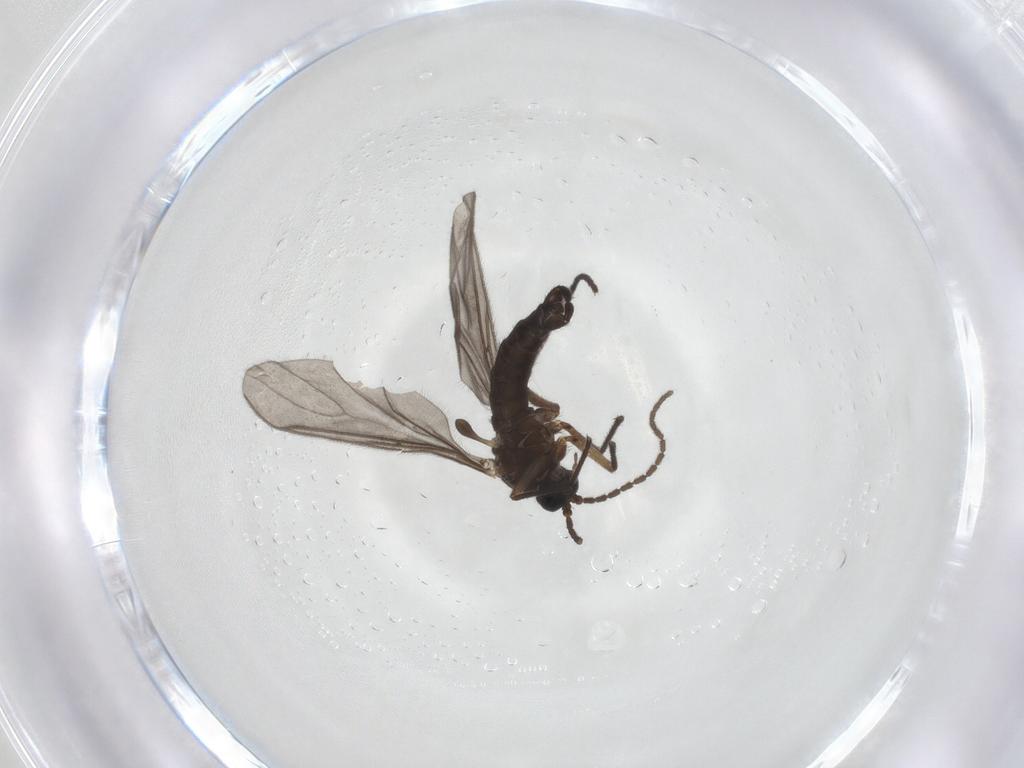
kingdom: Animalia
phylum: Arthropoda
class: Insecta
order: Diptera
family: Sciaridae
